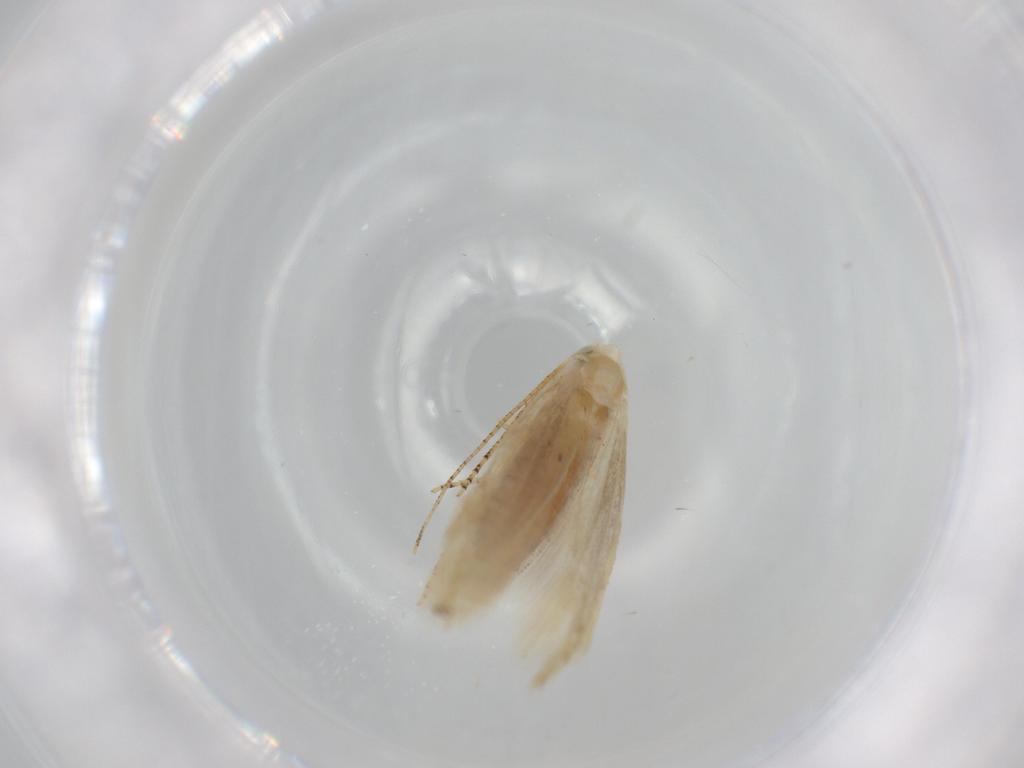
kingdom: Animalia
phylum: Arthropoda
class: Insecta
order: Lepidoptera
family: Bucculatricidae
